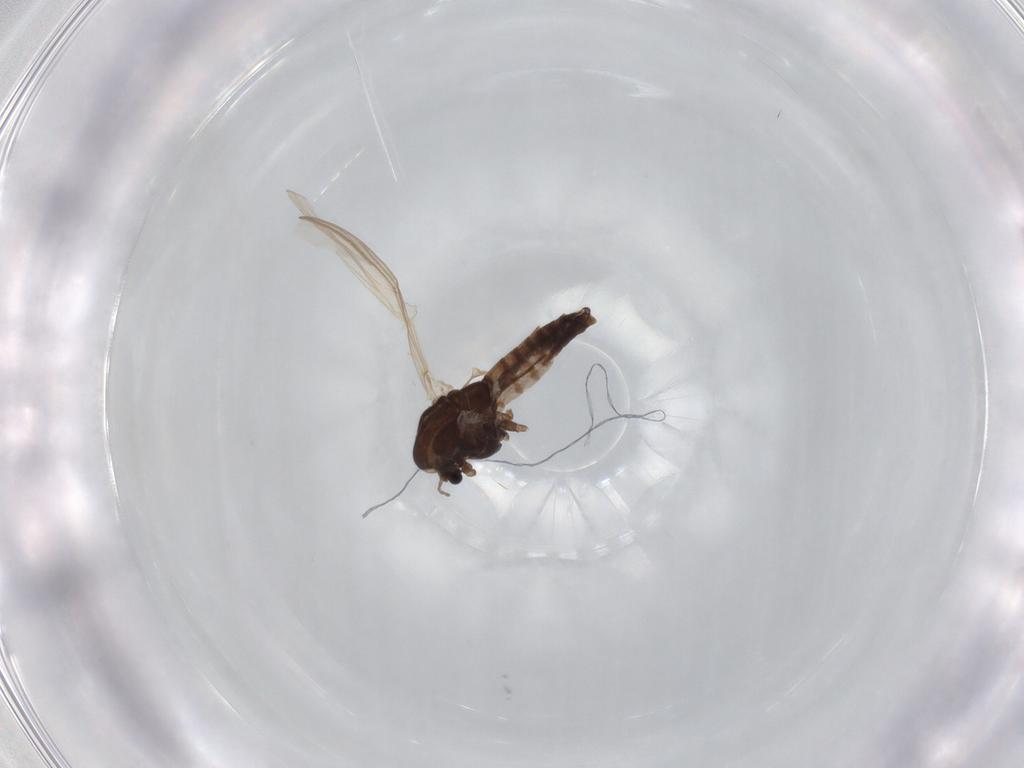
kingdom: Animalia
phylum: Arthropoda
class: Insecta
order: Diptera
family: Chironomidae
